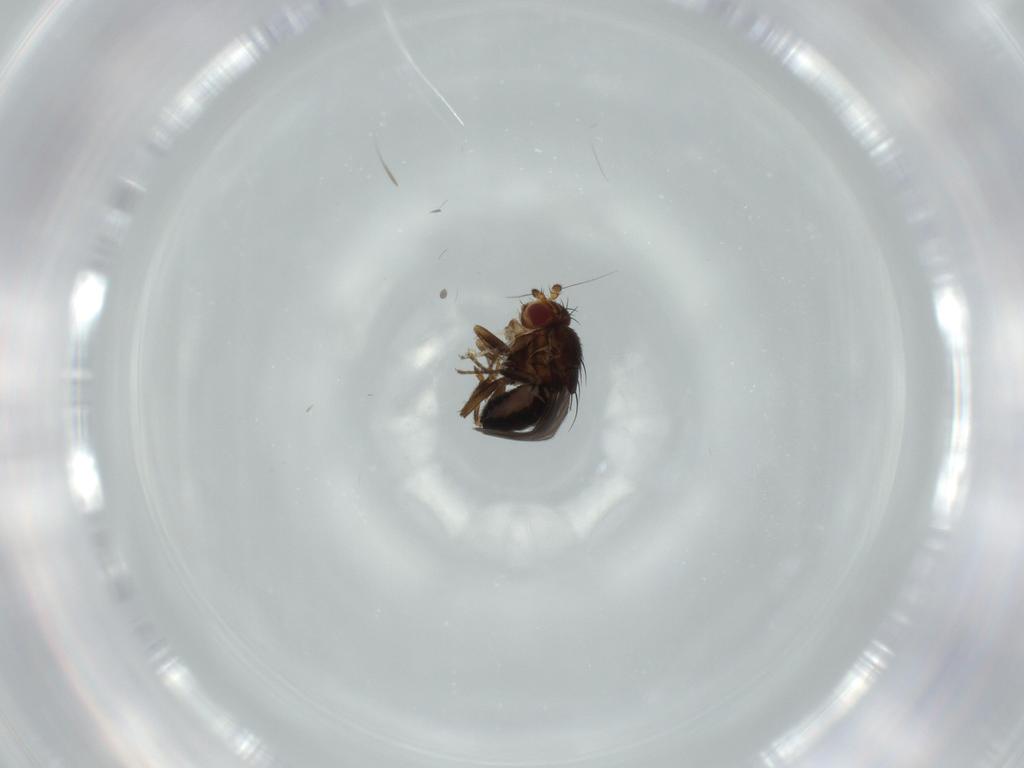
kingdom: Animalia
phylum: Arthropoda
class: Insecta
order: Diptera
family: Sphaeroceridae
